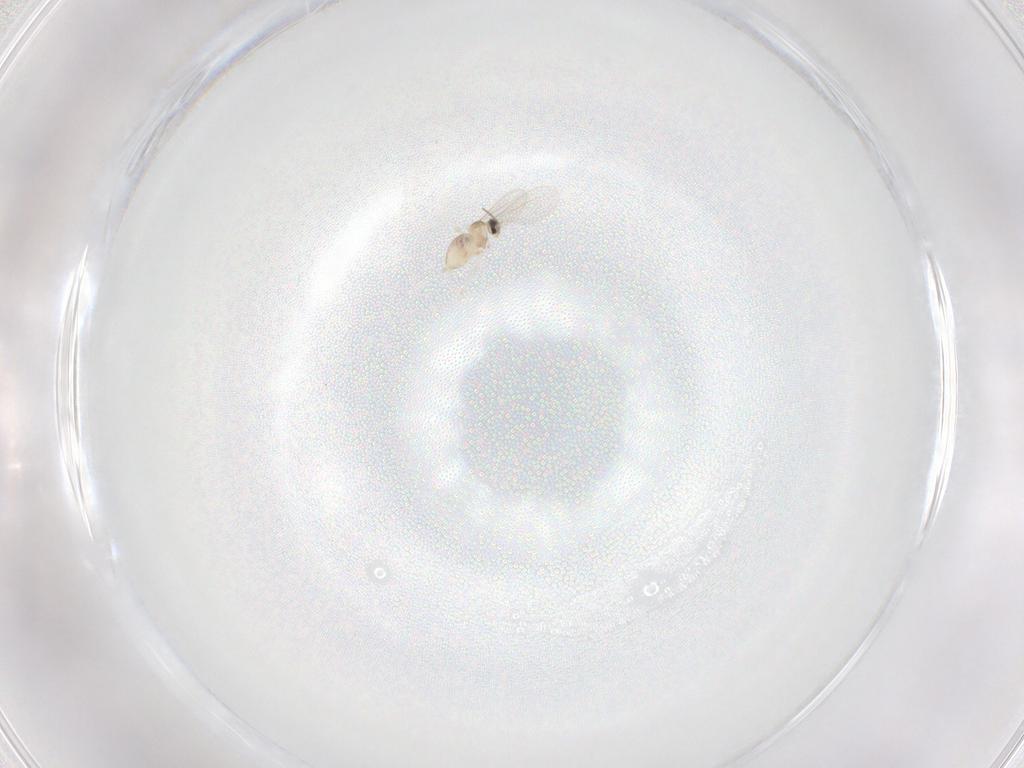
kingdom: Animalia
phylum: Arthropoda
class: Insecta
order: Diptera
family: Cecidomyiidae
